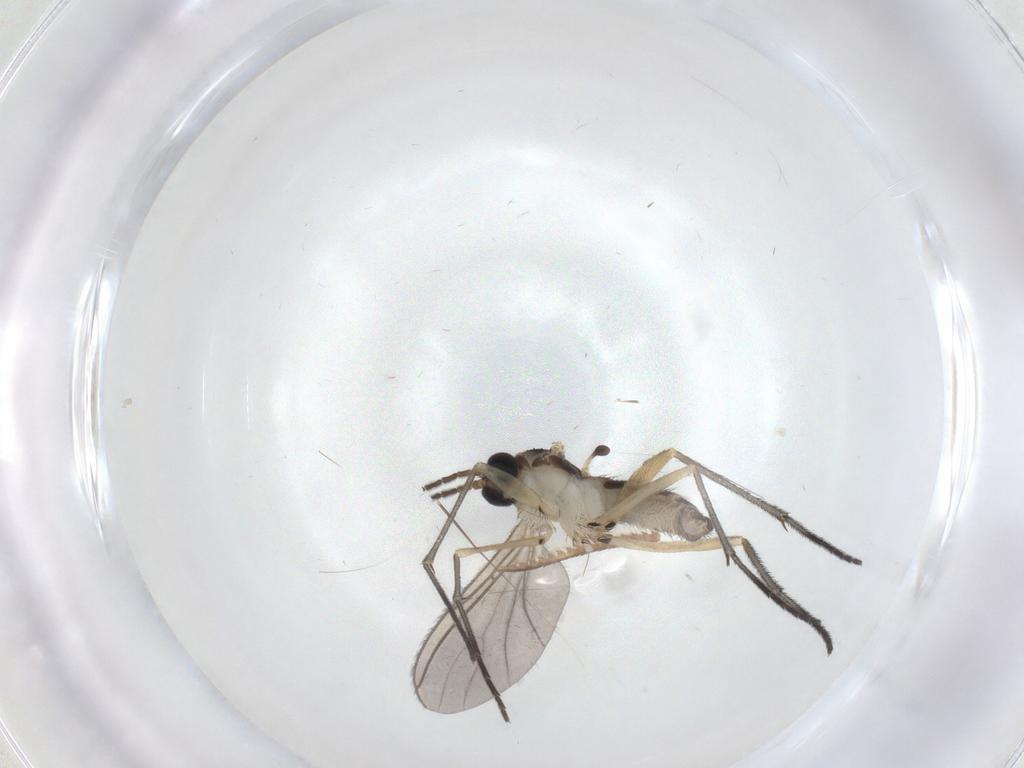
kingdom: Animalia
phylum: Arthropoda
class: Insecta
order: Diptera
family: Sciaridae
